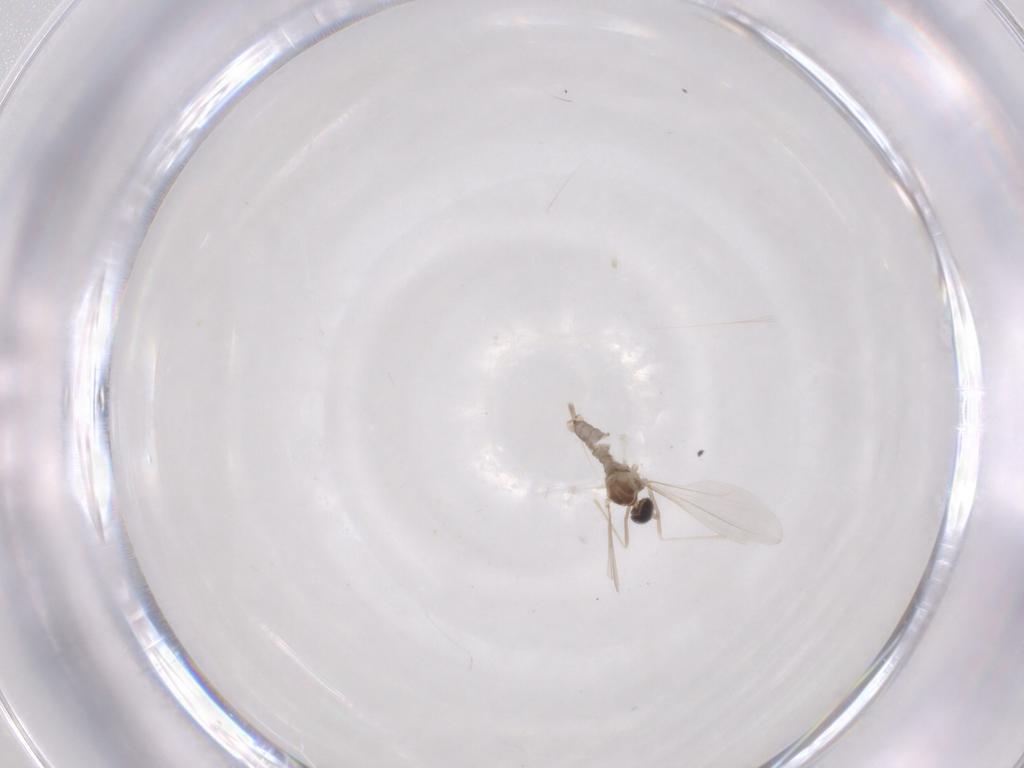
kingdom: Animalia
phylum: Arthropoda
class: Insecta
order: Diptera
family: Cecidomyiidae
